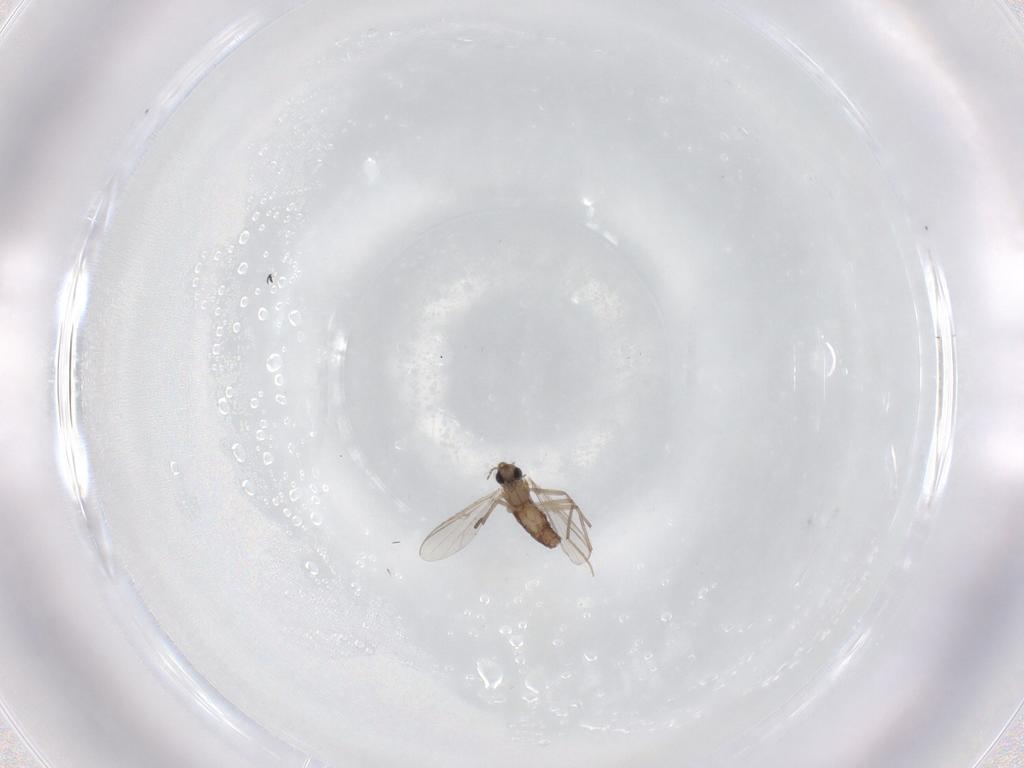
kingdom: Animalia
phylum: Arthropoda
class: Insecta
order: Diptera
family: Chironomidae
